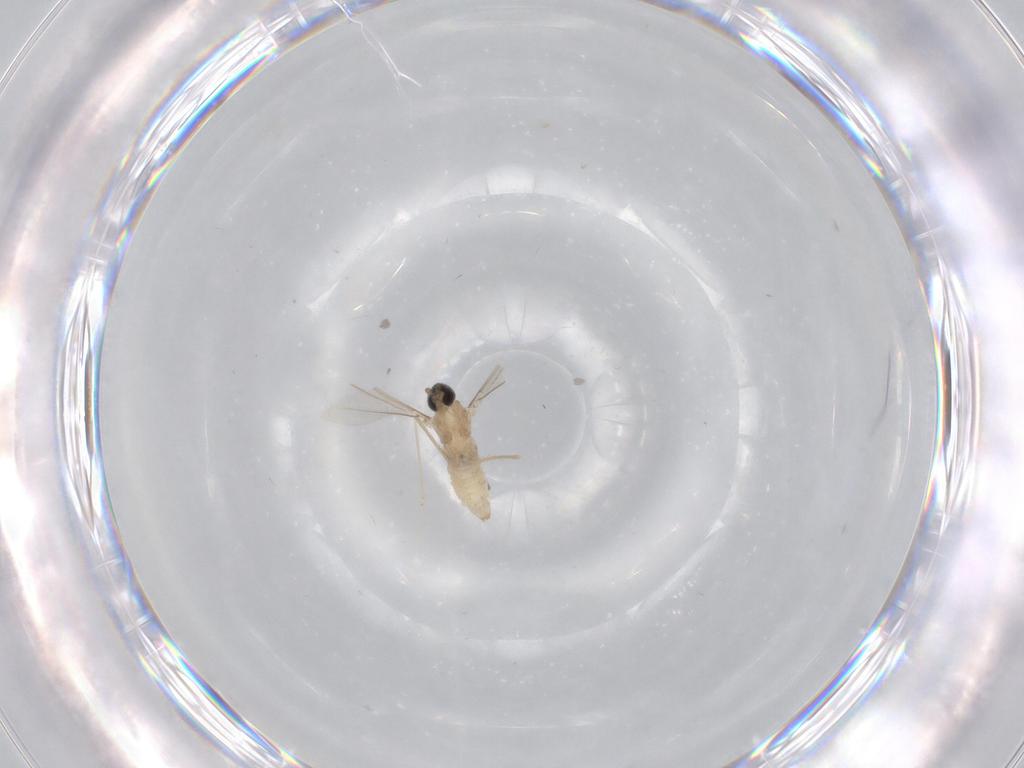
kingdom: Animalia
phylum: Arthropoda
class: Insecta
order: Diptera
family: Cecidomyiidae
